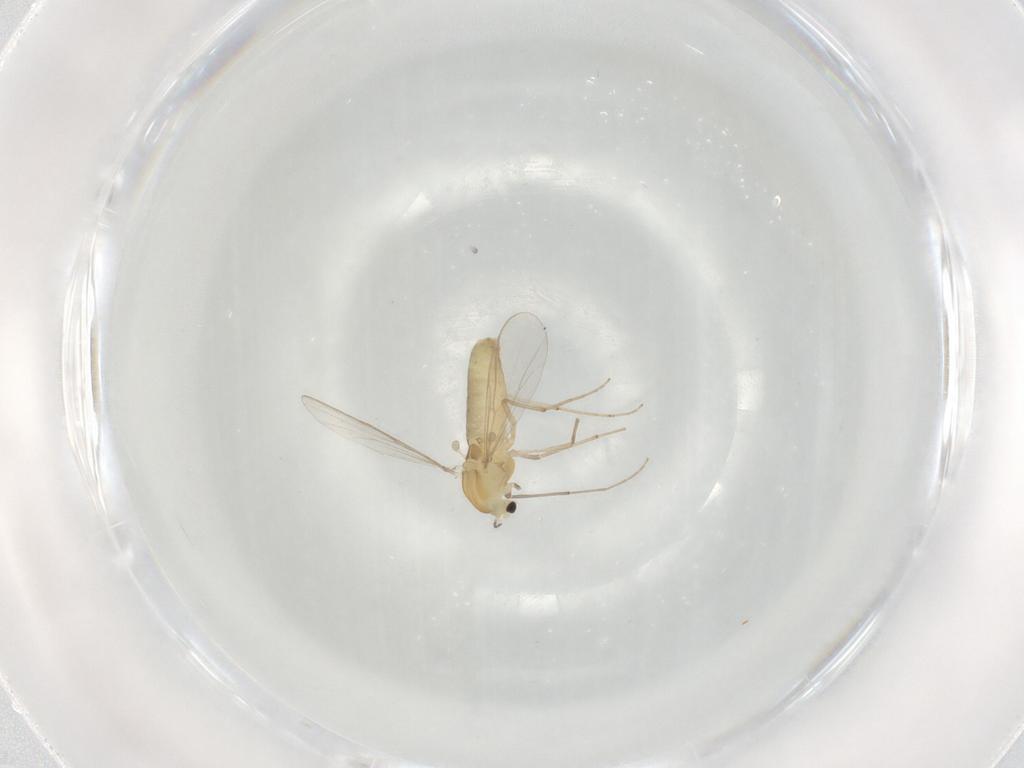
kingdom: Animalia
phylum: Arthropoda
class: Insecta
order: Diptera
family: Chironomidae
